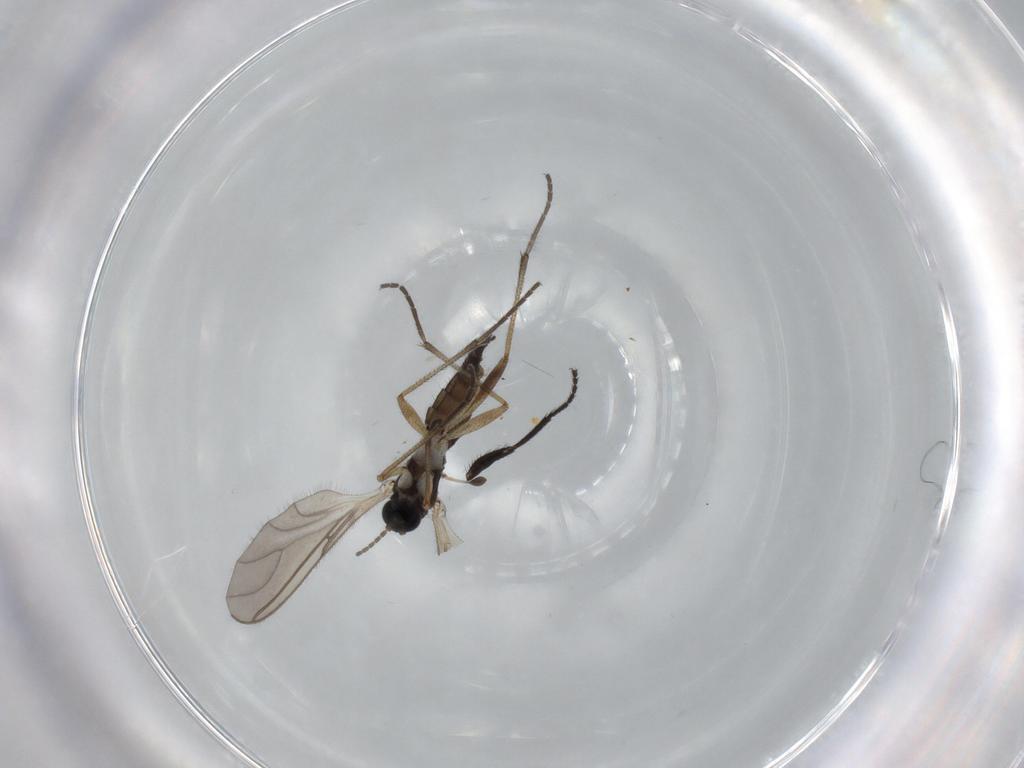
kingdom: Animalia
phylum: Arthropoda
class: Insecta
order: Diptera
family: Sciaridae
